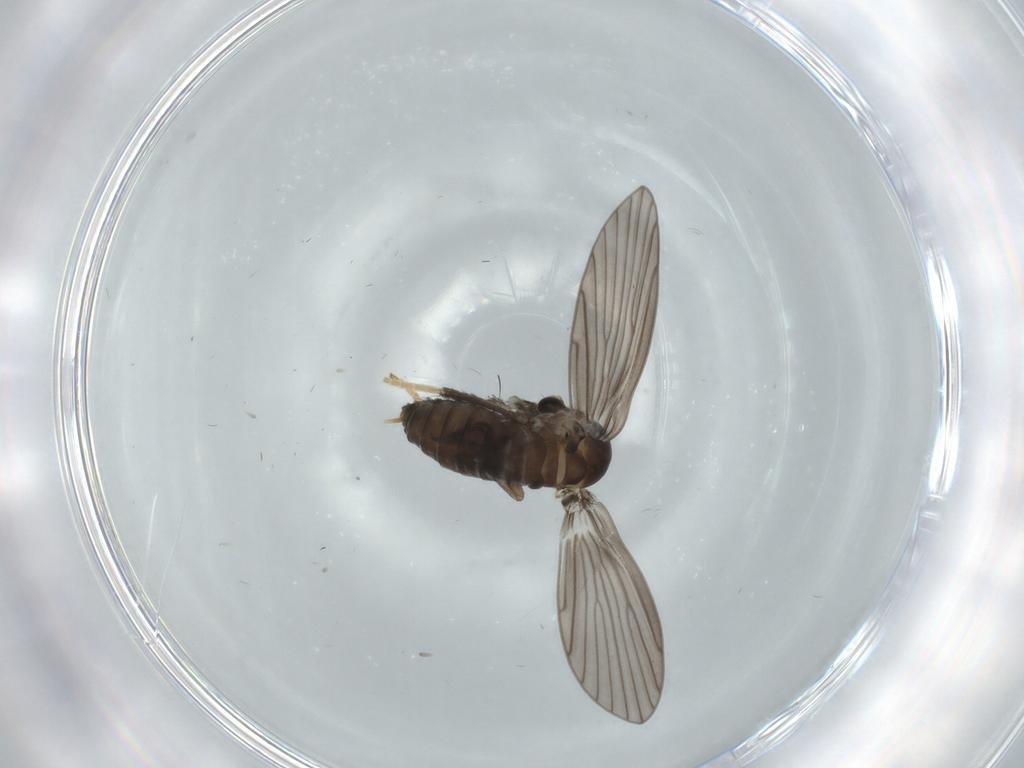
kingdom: Animalia
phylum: Arthropoda
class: Insecta
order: Diptera
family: Psychodidae
